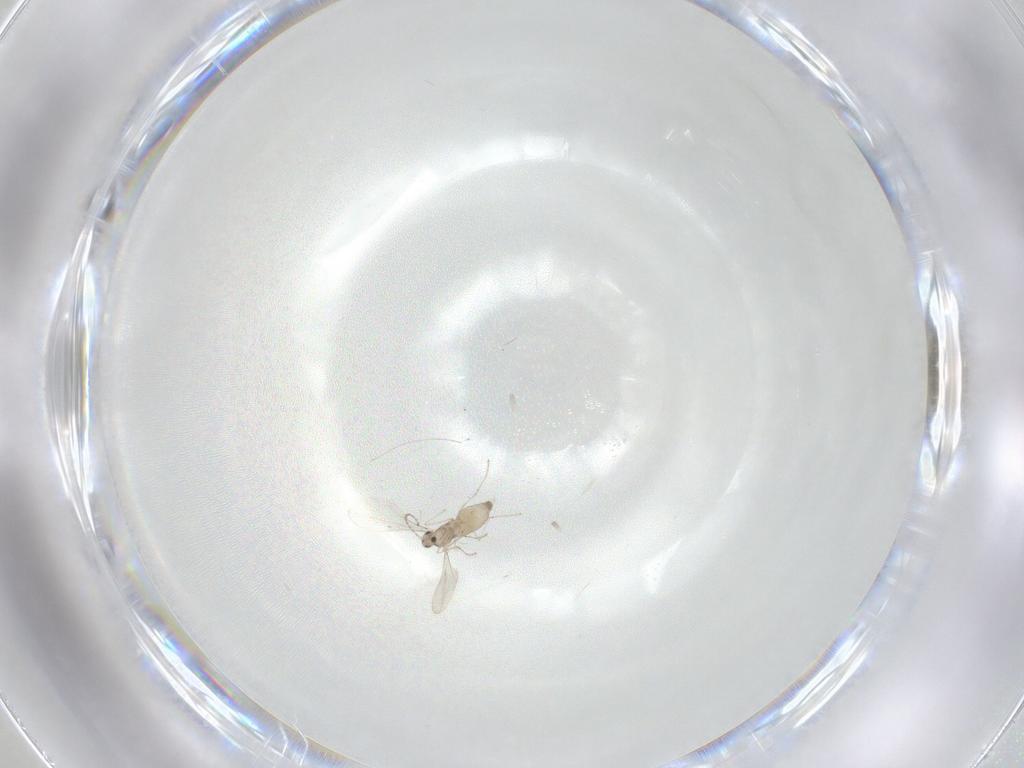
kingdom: Animalia
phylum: Arthropoda
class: Insecta
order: Diptera
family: Cecidomyiidae
